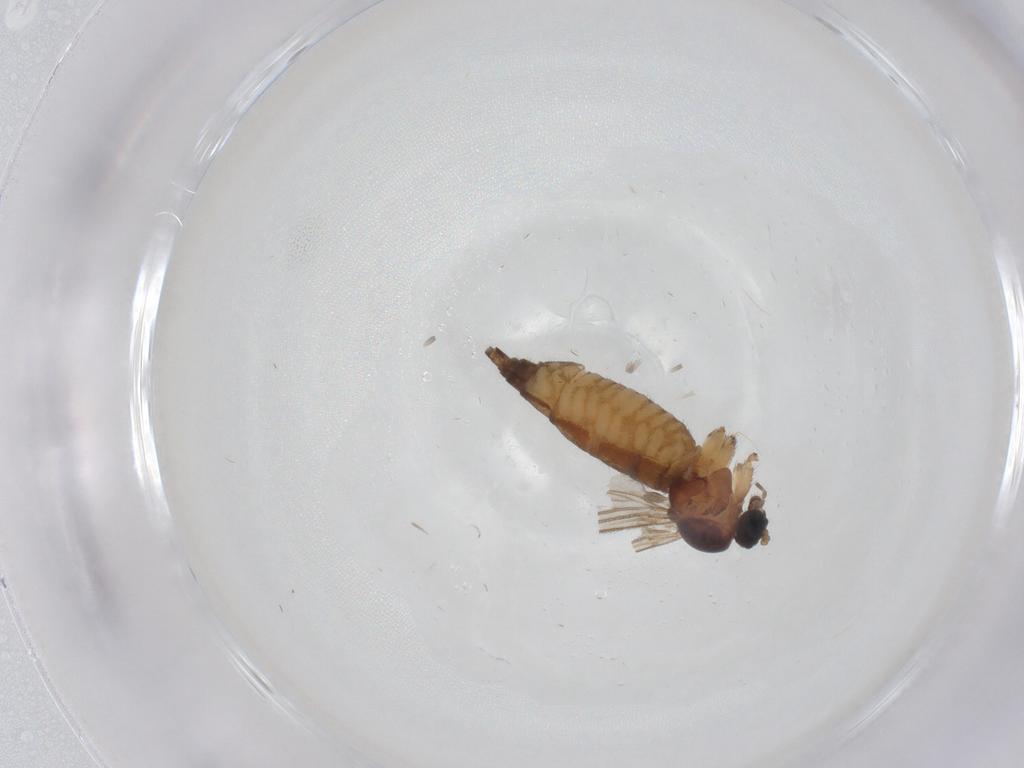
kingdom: Animalia
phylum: Arthropoda
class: Insecta
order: Diptera
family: Sciaridae
